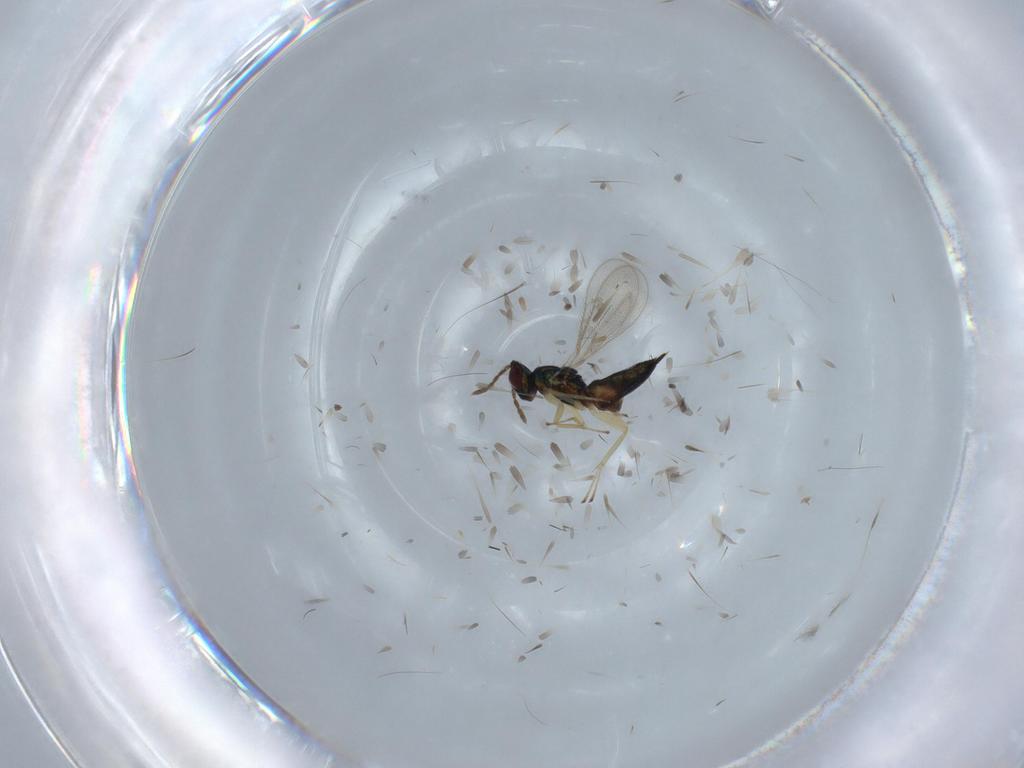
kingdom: Animalia
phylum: Arthropoda
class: Insecta
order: Hymenoptera
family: Eulophidae
